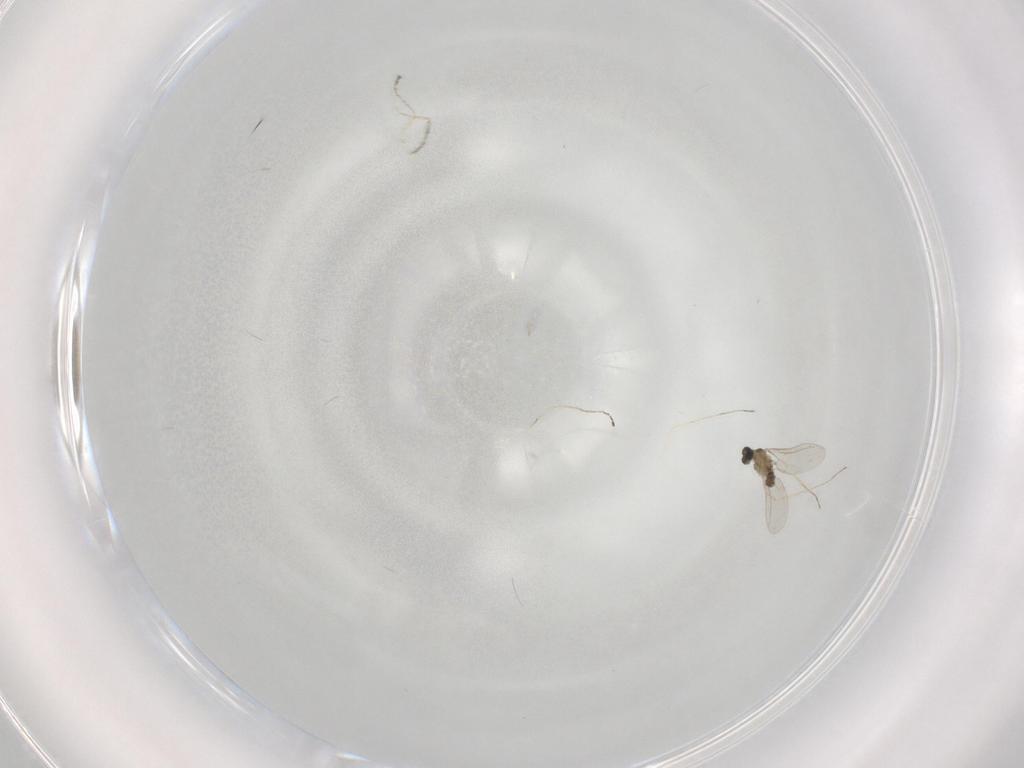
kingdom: Animalia
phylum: Arthropoda
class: Insecta
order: Diptera
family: Cecidomyiidae
